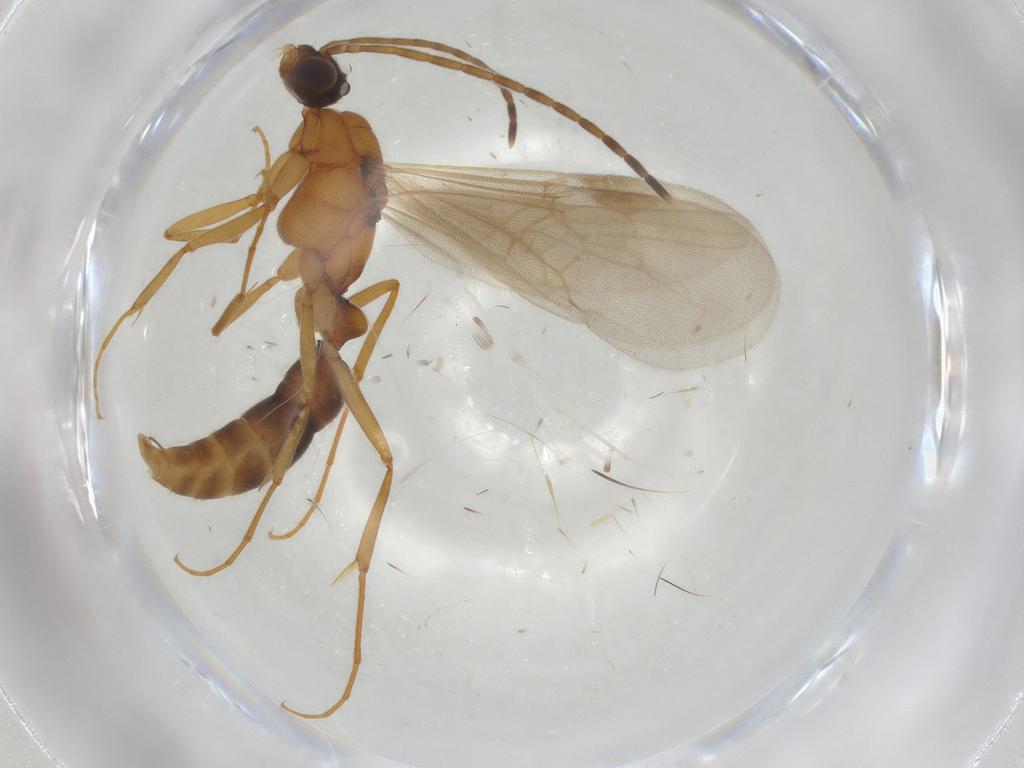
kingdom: Animalia
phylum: Arthropoda
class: Insecta
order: Hymenoptera
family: Formicidae
